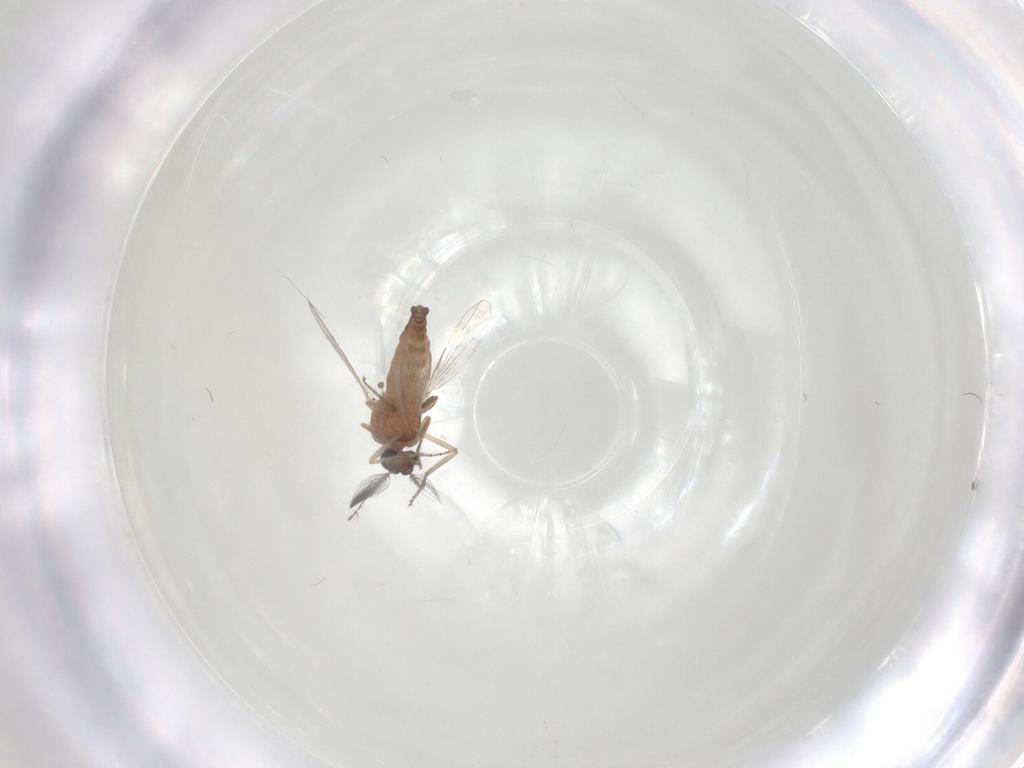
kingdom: Animalia
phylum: Arthropoda
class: Insecta
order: Diptera
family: Ceratopogonidae
